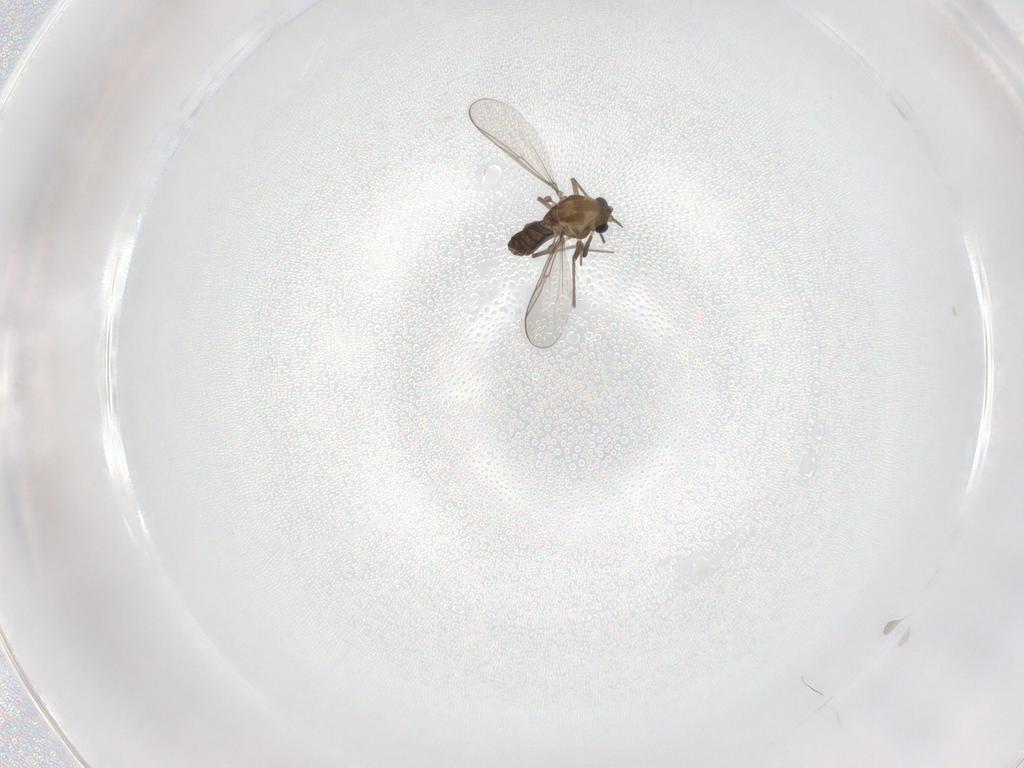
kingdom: Animalia
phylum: Arthropoda
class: Insecta
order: Diptera
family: Chironomidae
